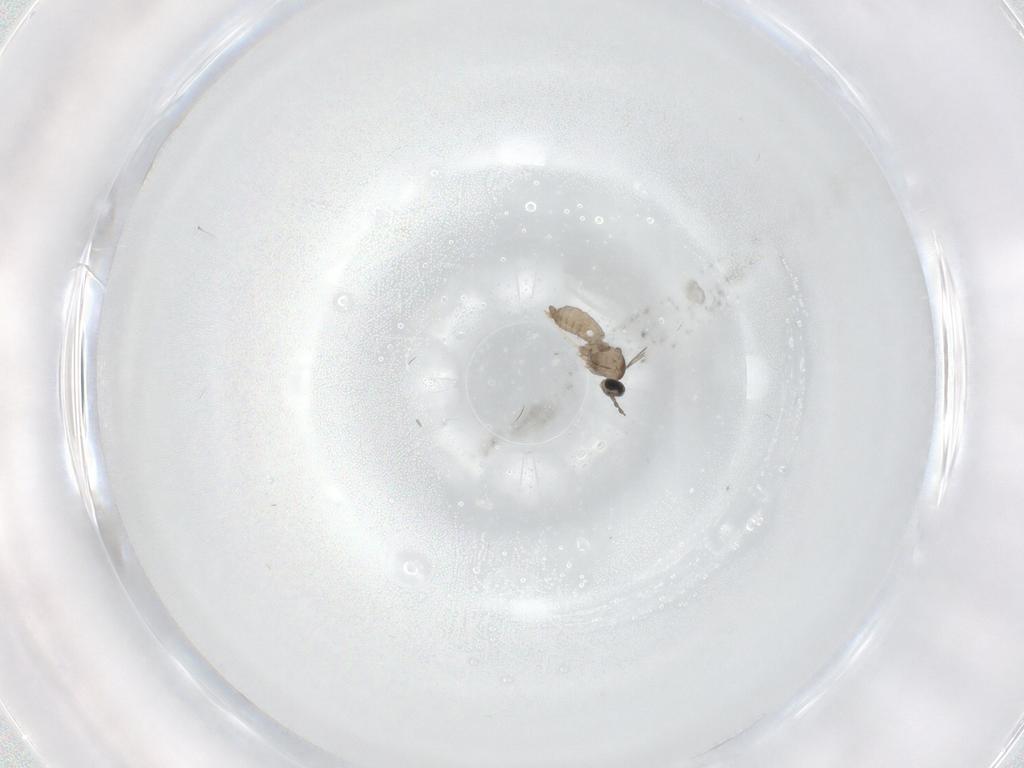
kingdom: Animalia
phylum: Arthropoda
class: Insecta
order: Diptera
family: Cecidomyiidae
